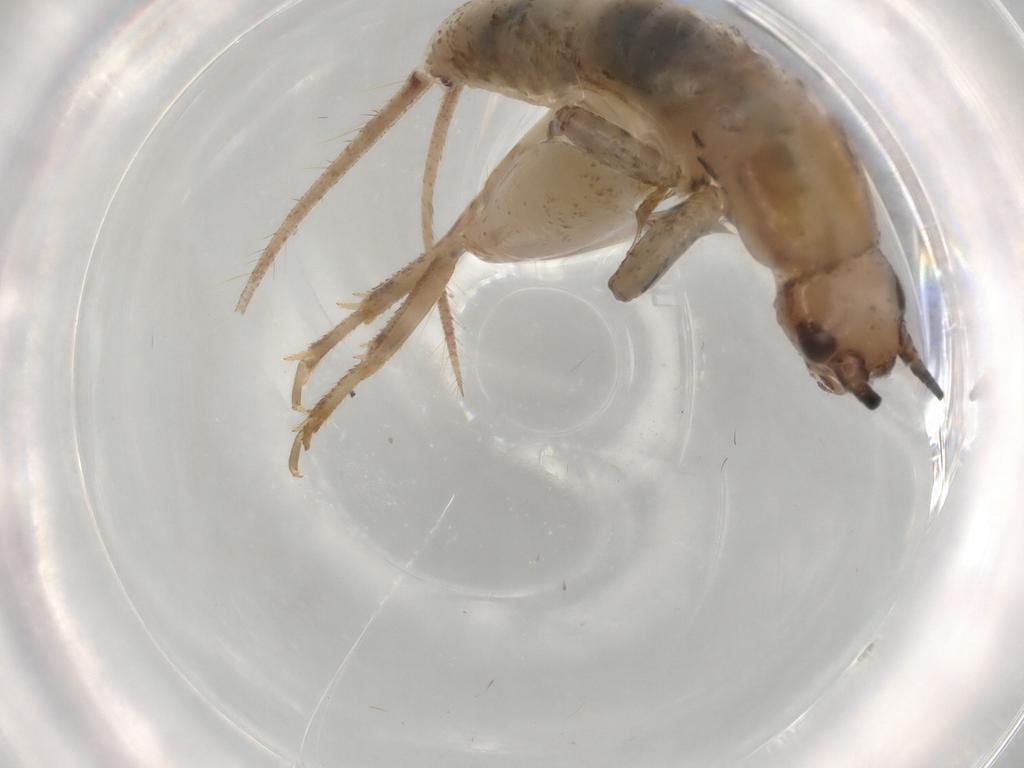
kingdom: Animalia
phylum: Arthropoda
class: Insecta
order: Orthoptera
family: Mogoplistidae
